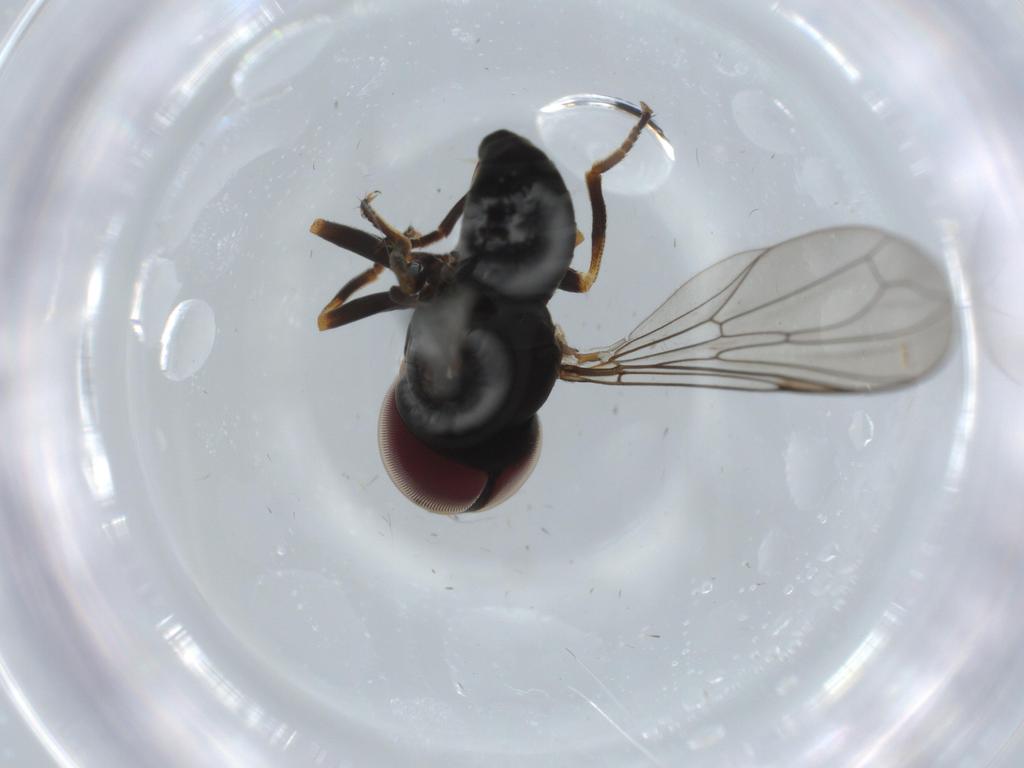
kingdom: Animalia
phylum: Arthropoda
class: Insecta
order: Diptera
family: Pipunculidae
